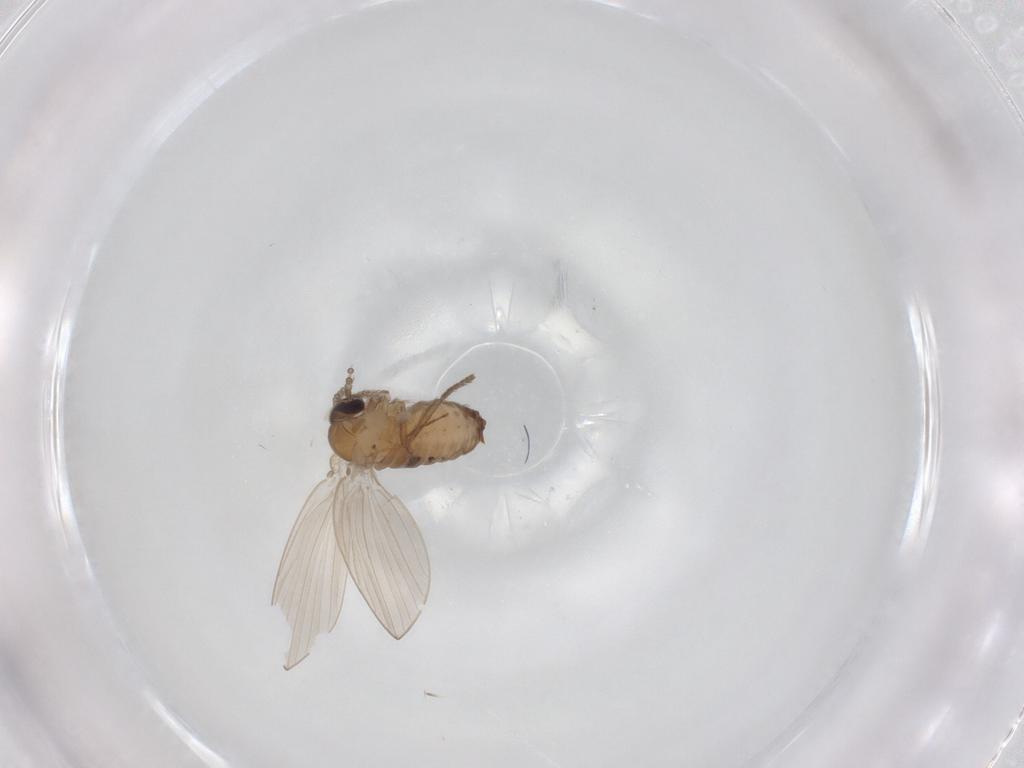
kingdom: Animalia
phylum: Arthropoda
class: Insecta
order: Diptera
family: Psychodidae
